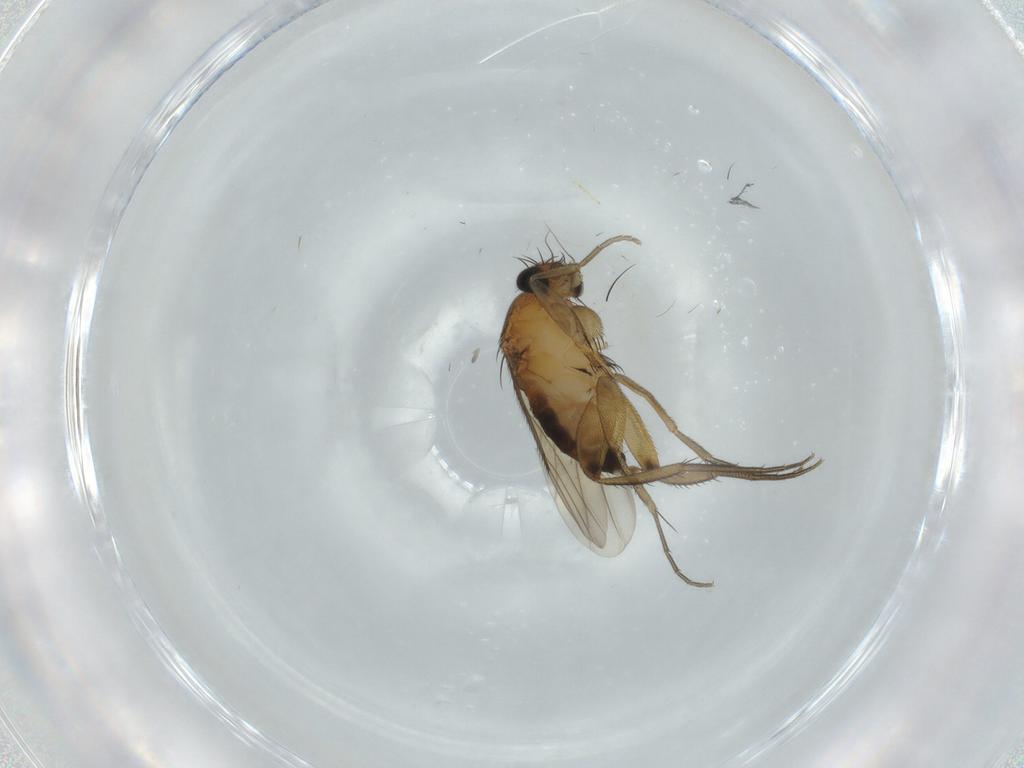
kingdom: Animalia
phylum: Arthropoda
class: Insecta
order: Diptera
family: Phoridae
